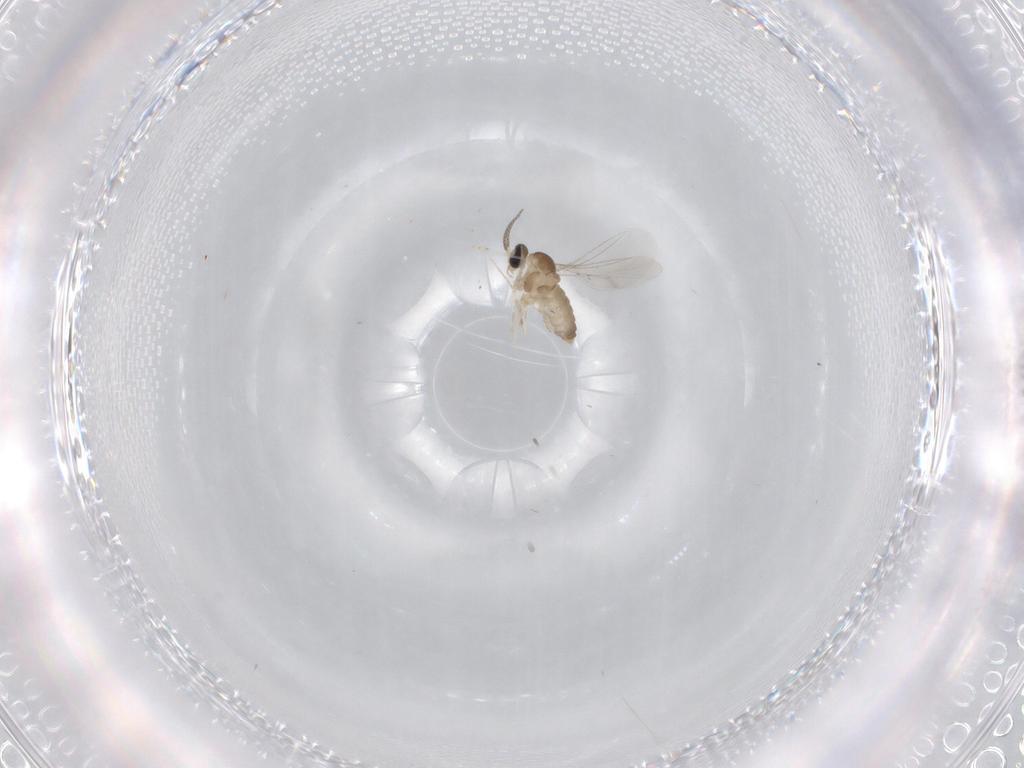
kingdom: Animalia
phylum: Arthropoda
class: Insecta
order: Diptera
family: Cecidomyiidae
